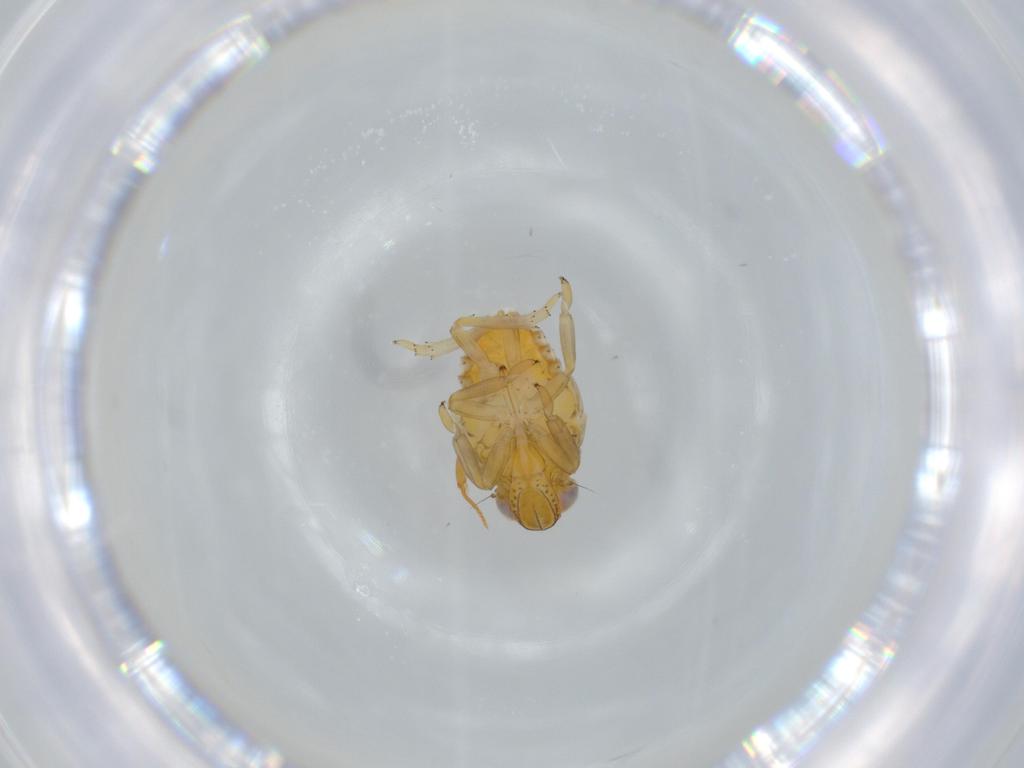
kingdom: Animalia
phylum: Arthropoda
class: Insecta
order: Hemiptera
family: Issidae
